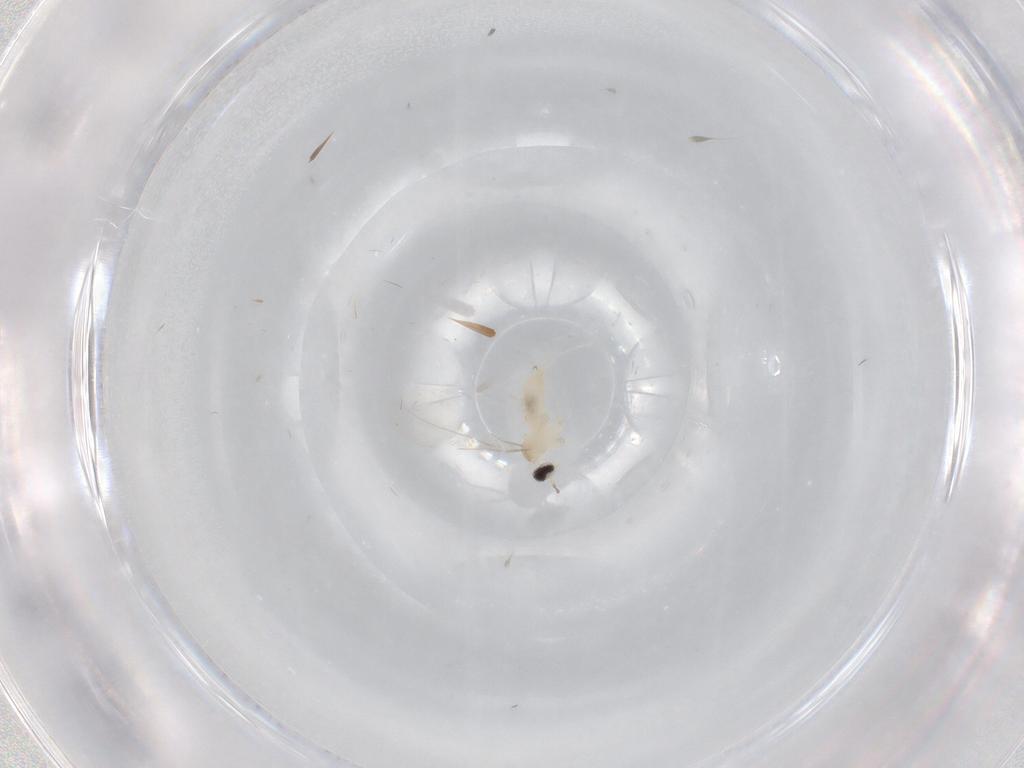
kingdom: Animalia
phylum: Arthropoda
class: Insecta
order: Diptera
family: Cecidomyiidae
